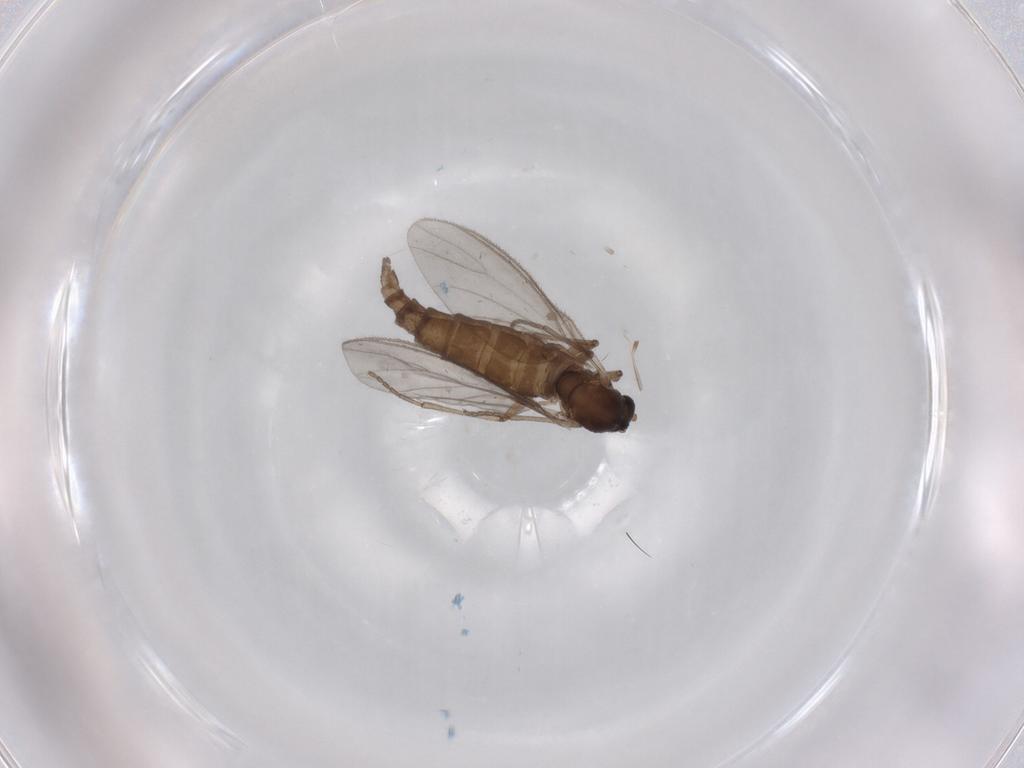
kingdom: Animalia
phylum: Arthropoda
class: Insecta
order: Diptera
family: Sciaridae
